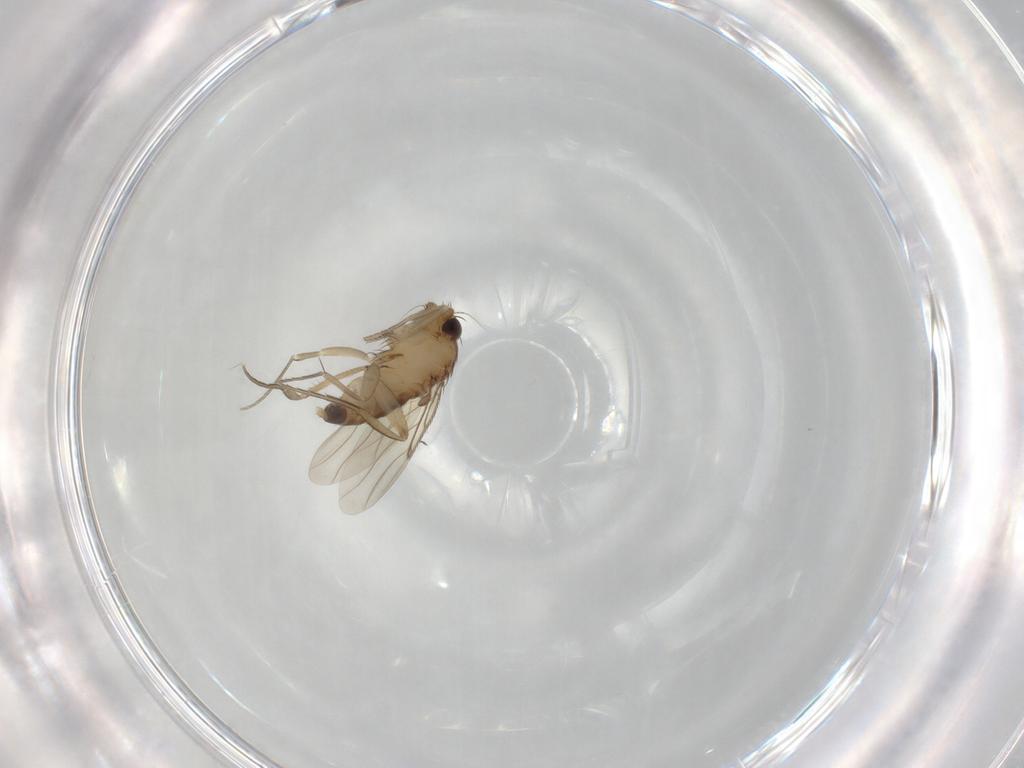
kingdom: Animalia
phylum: Arthropoda
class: Insecta
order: Diptera
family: Phoridae
